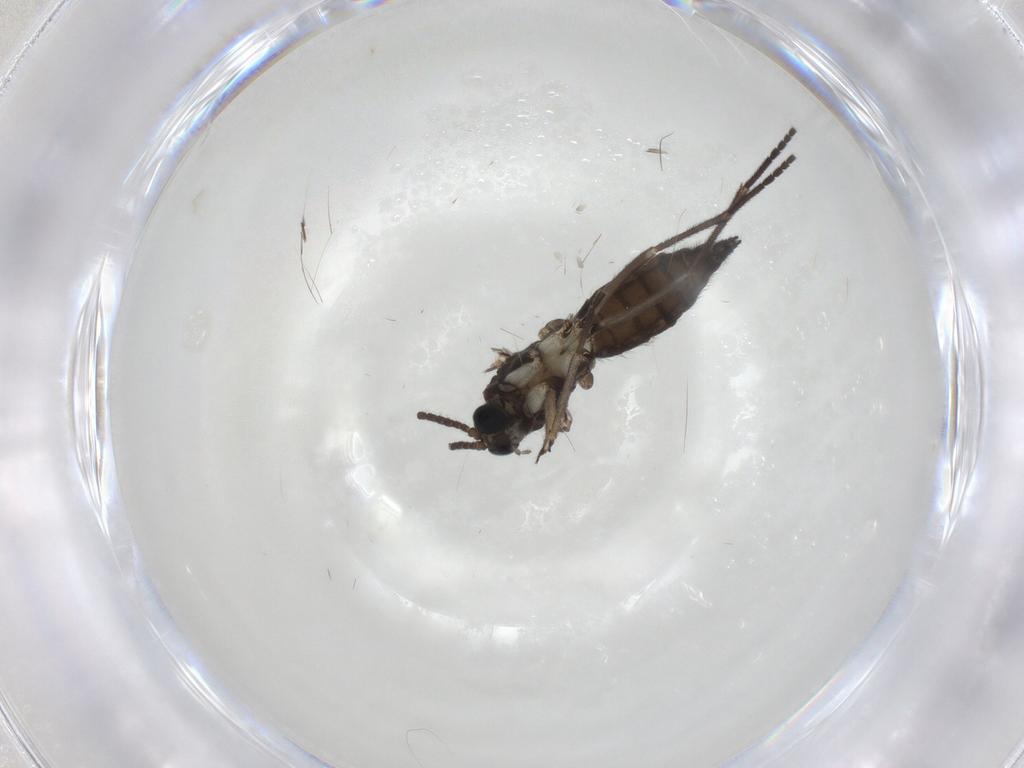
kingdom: Animalia
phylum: Arthropoda
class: Insecta
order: Diptera
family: Sciaridae
